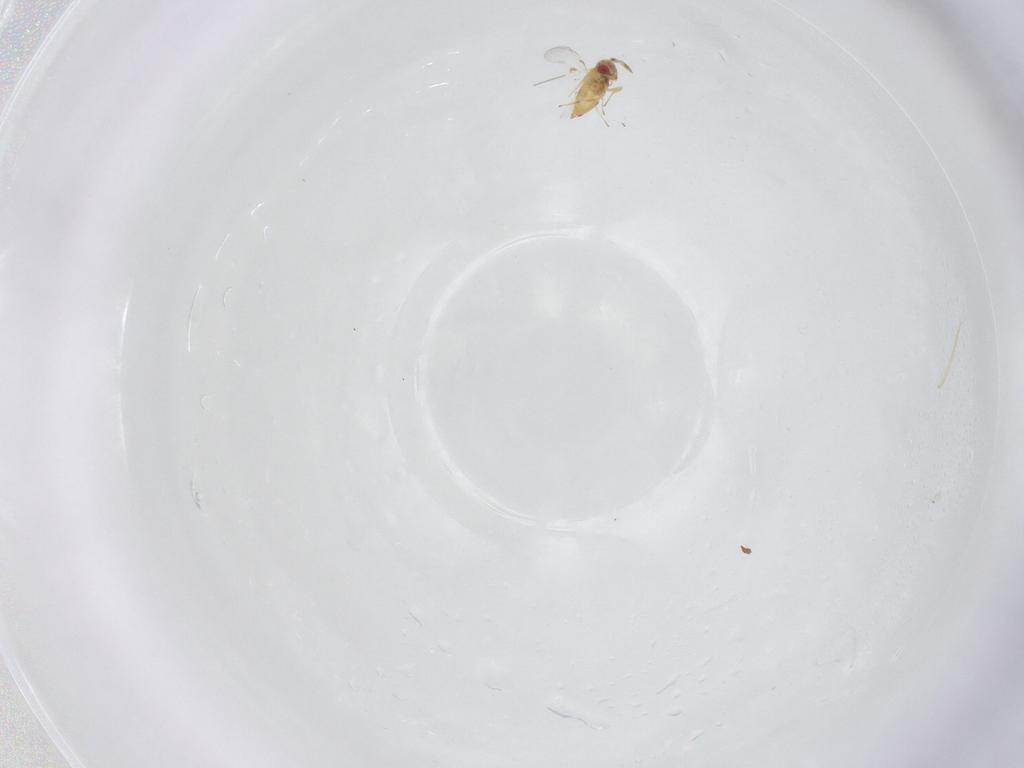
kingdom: Animalia
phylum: Arthropoda
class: Insecta
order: Hymenoptera
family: Trichogrammatidae
